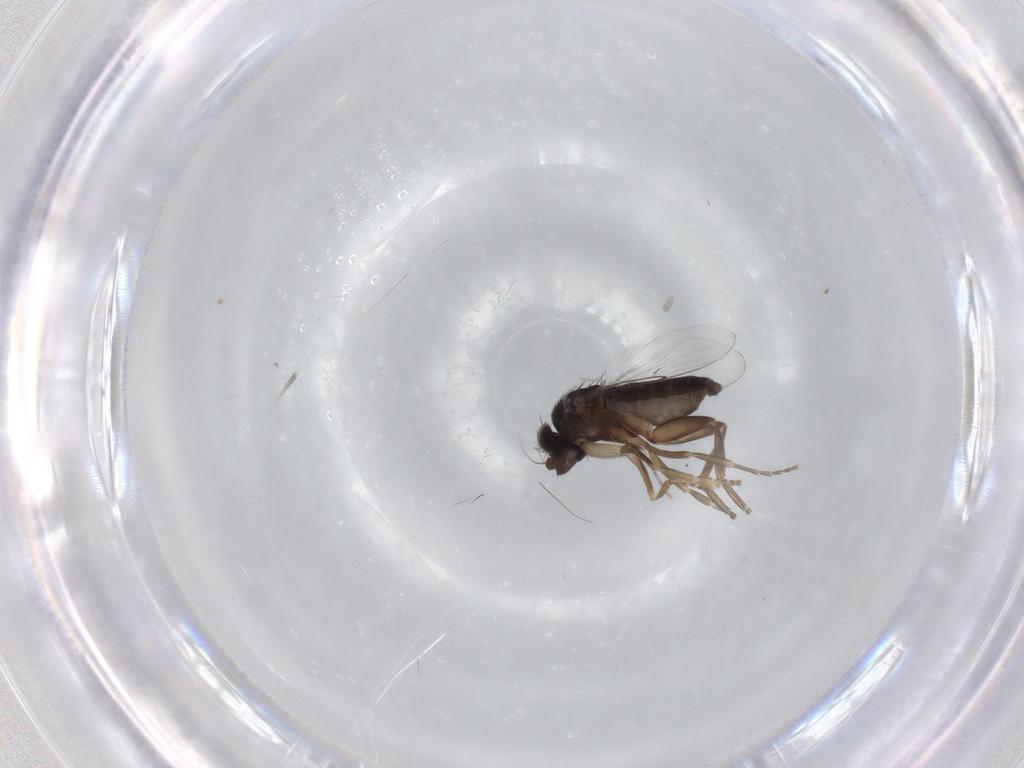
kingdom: Animalia
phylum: Arthropoda
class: Insecta
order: Diptera
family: Phoridae
